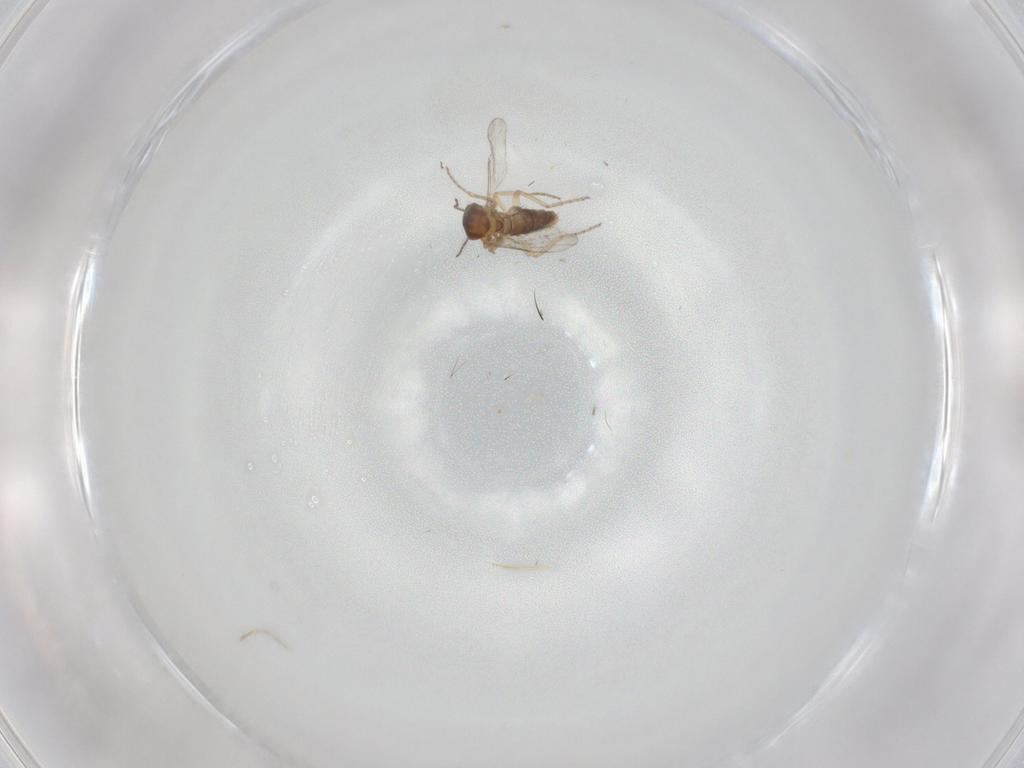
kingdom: Animalia
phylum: Arthropoda
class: Insecta
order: Diptera
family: Ceratopogonidae
